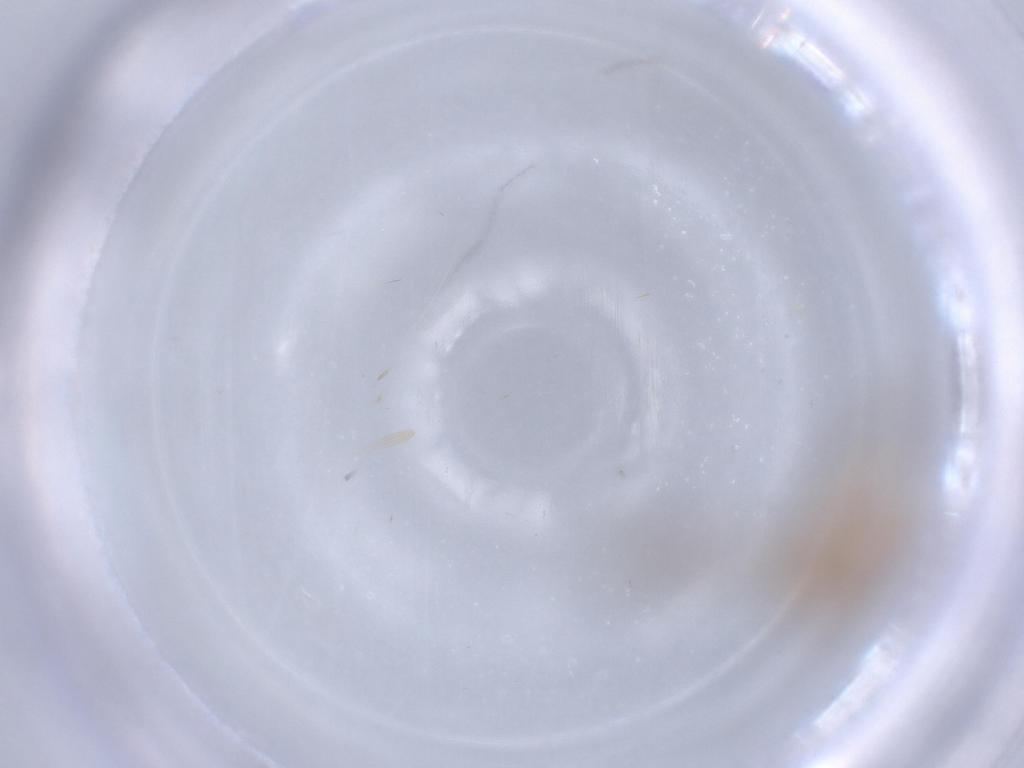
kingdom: Animalia
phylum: Arthropoda
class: Insecta
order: Psocodea
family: Lachesillidae
